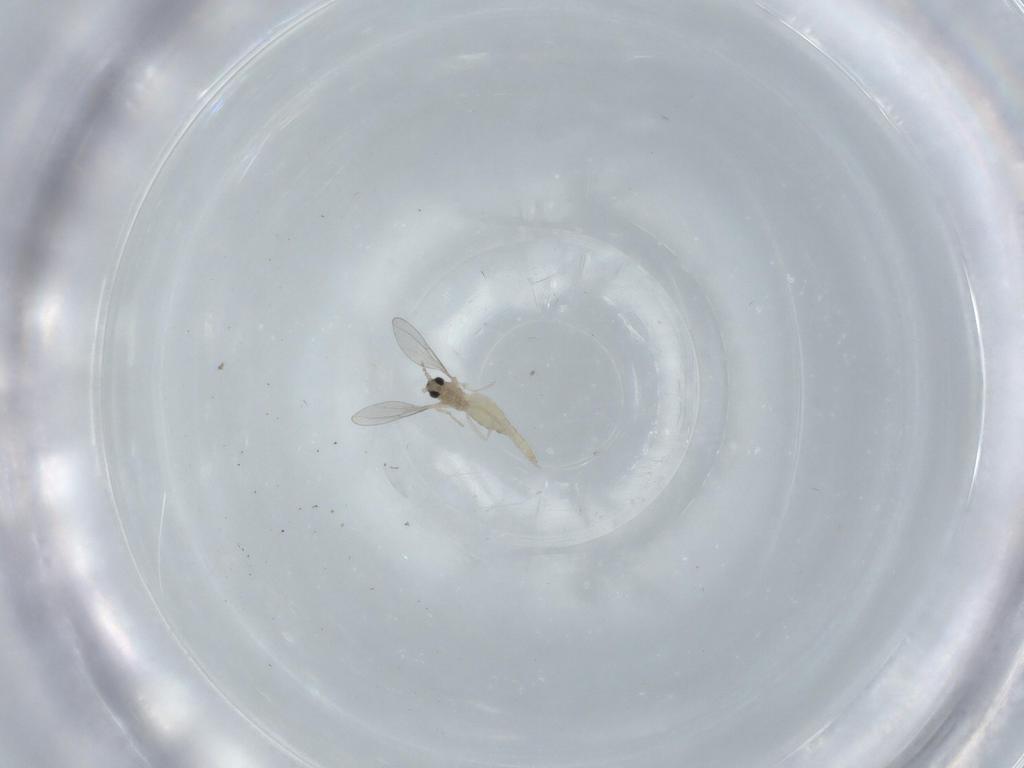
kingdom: Animalia
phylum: Arthropoda
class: Insecta
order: Diptera
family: Cecidomyiidae
